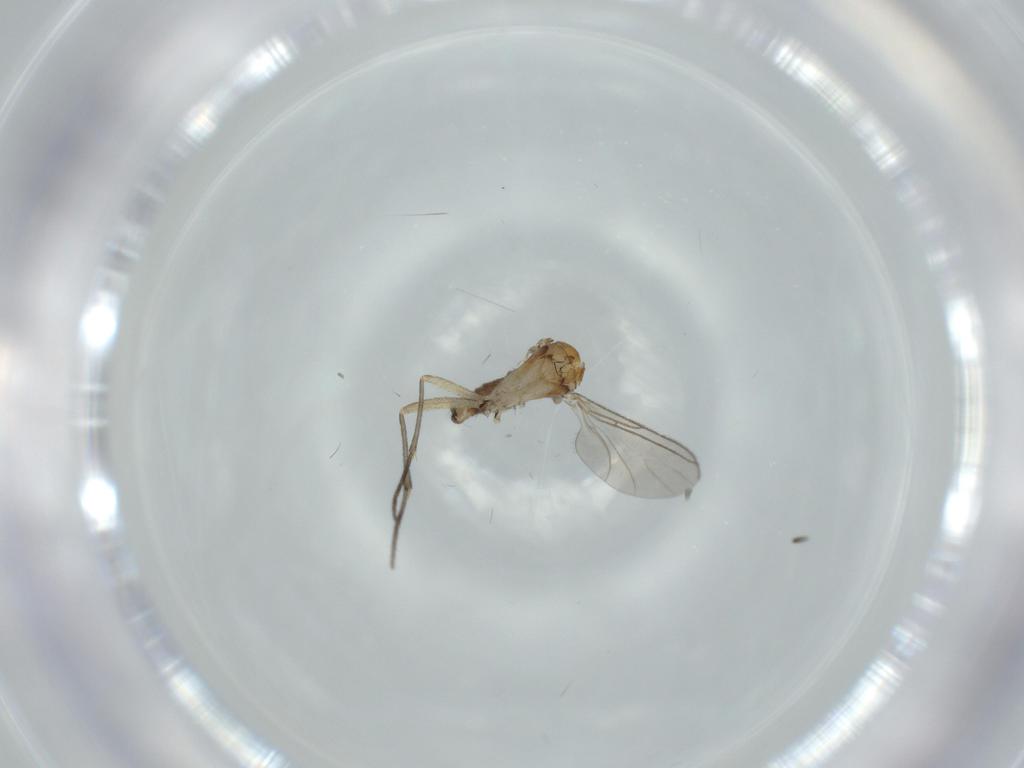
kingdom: Animalia
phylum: Arthropoda
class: Insecta
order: Diptera
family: Sciaridae
